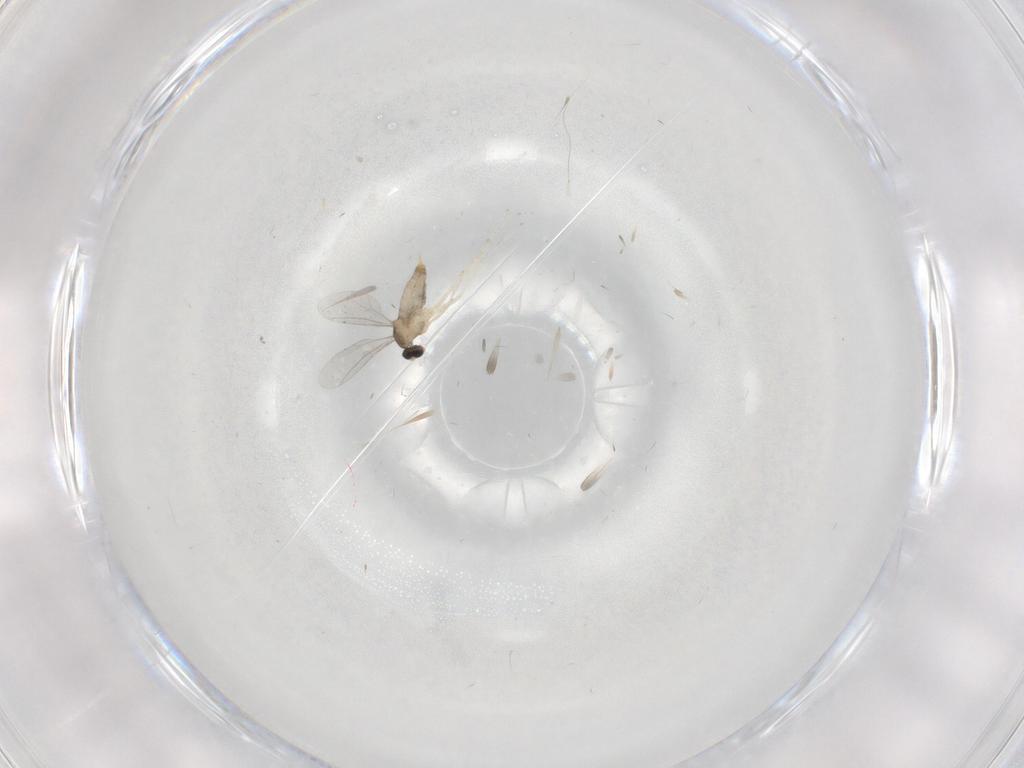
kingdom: Animalia
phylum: Arthropoda
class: Insecta
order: Diptera
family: Cecidomyiidae
